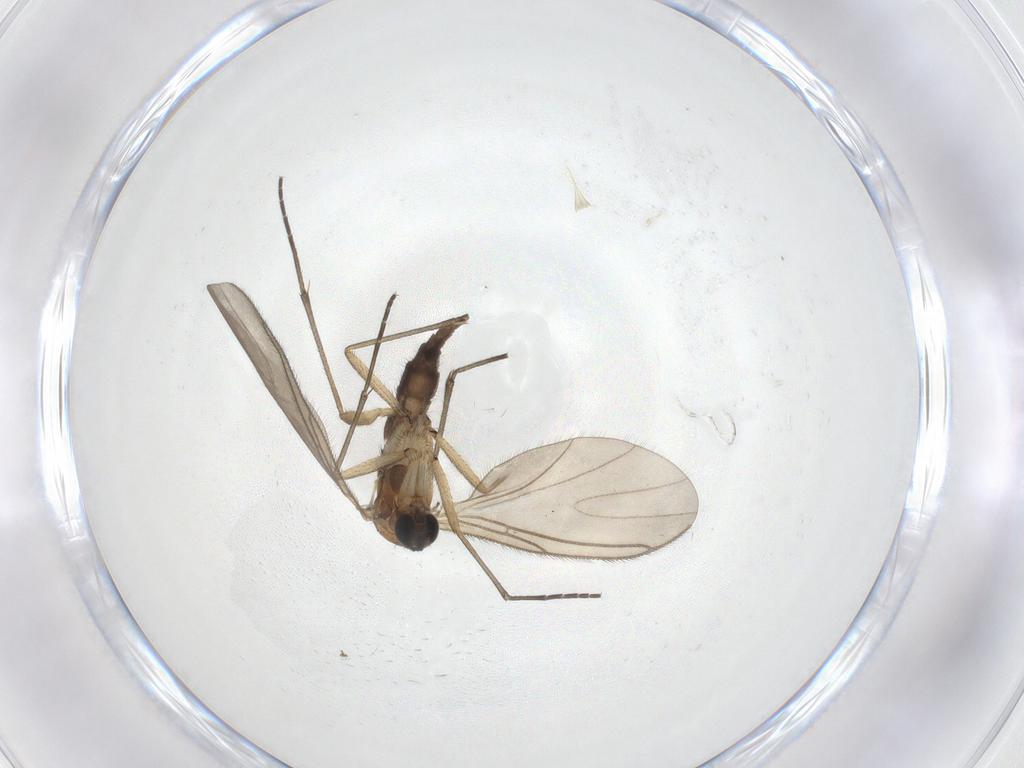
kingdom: Animalia
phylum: Arthropoda
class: Insecta
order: Diptera
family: Sciaridae
